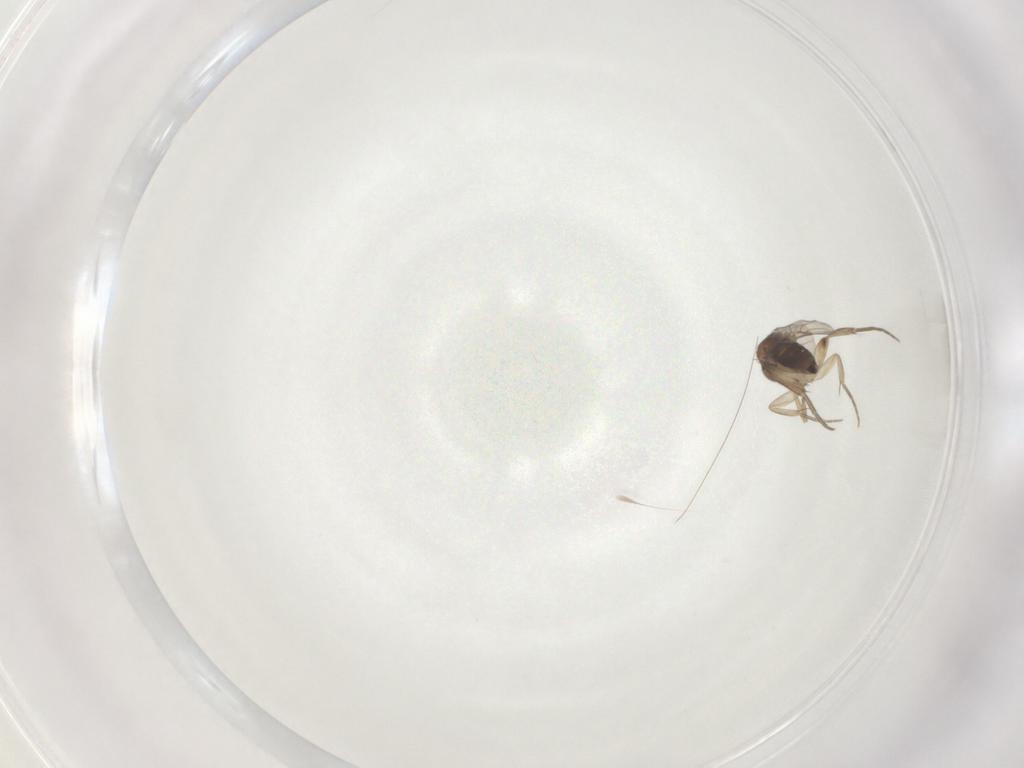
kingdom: Animalia
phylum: Arthropoda
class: Insecta
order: Diptera
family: Phoridae
